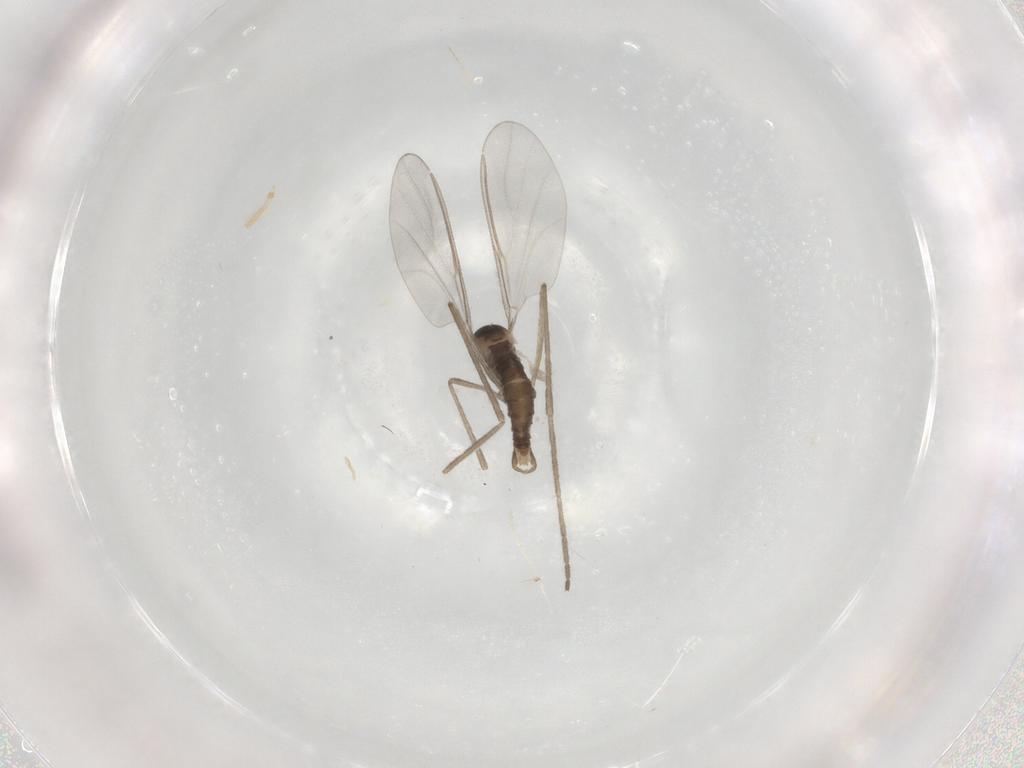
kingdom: Animalia
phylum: Arthropoda
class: Insecta
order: Diptera
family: Cecidomyiidae
